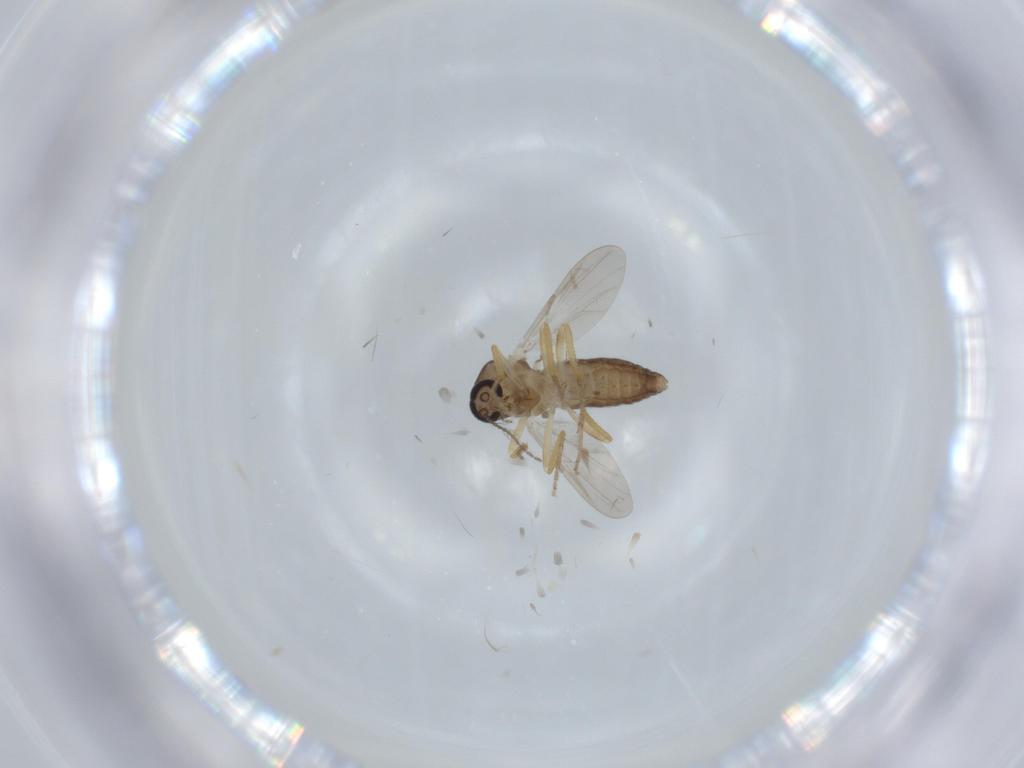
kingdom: Animalia
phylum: Arthropoda
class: Insecta
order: Diptera
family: Ceratopogonidae
